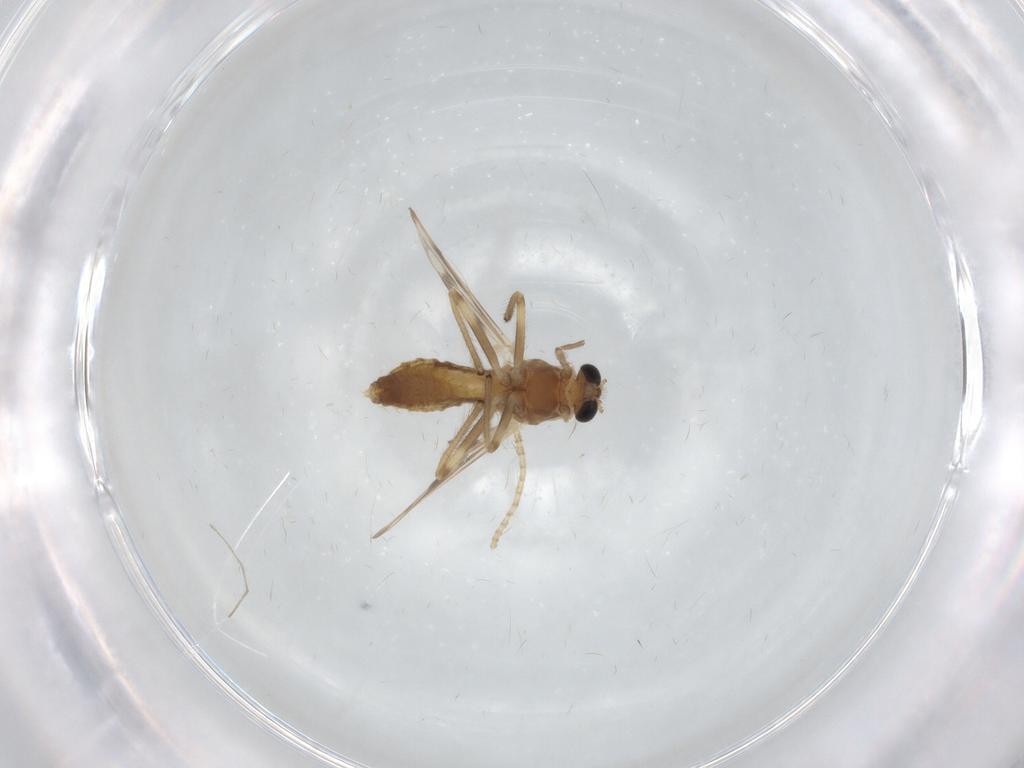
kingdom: Animalia
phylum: Arthropoda
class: Insecta
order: Diptera
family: Chironomidae
